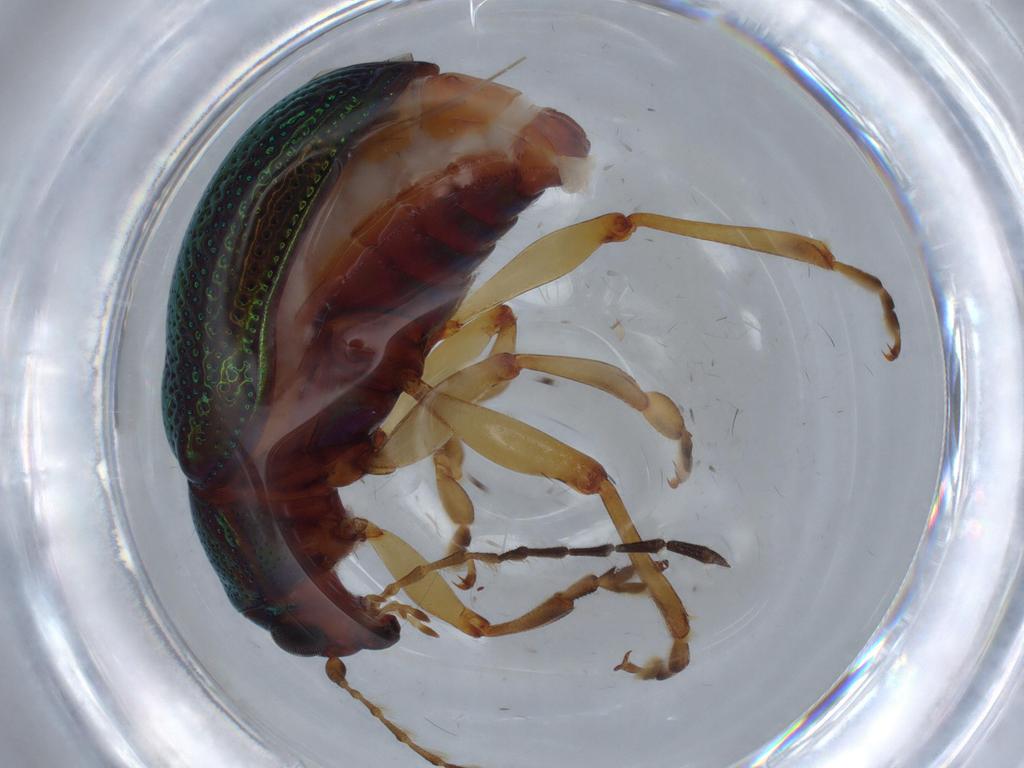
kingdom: Animalia
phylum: Arthropoda
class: Insecta
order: Coleoptera
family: Chrysomelidae
